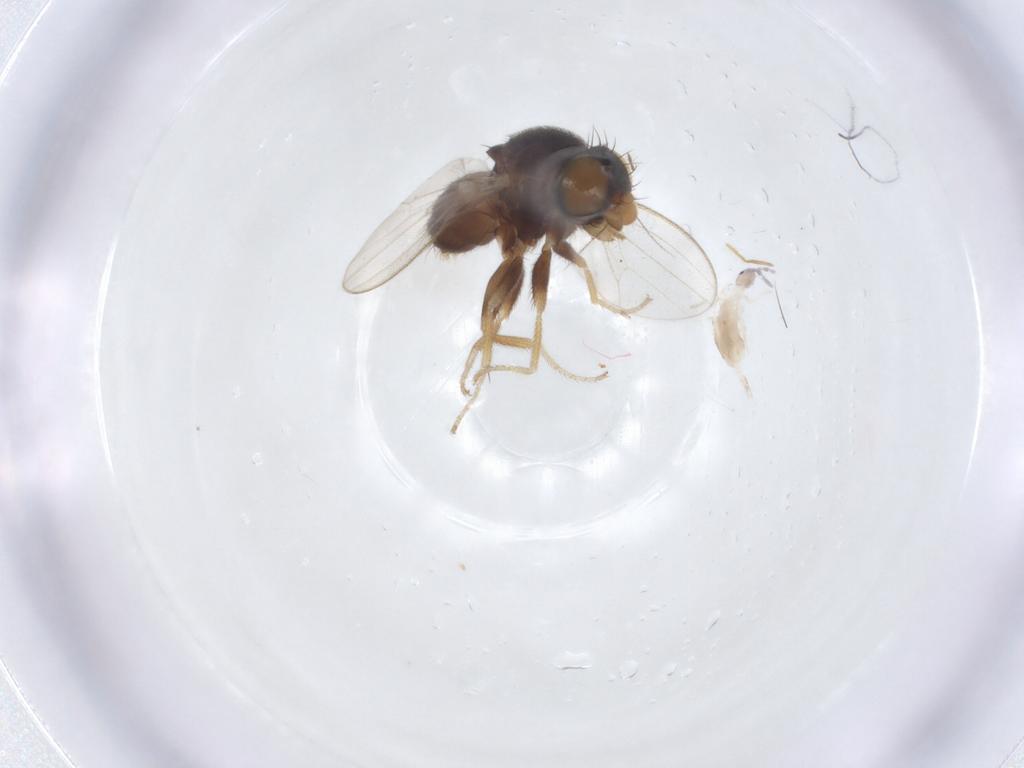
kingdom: Animalia
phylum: Arthropoda
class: Insecta
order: Diptera
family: Milichiidae
